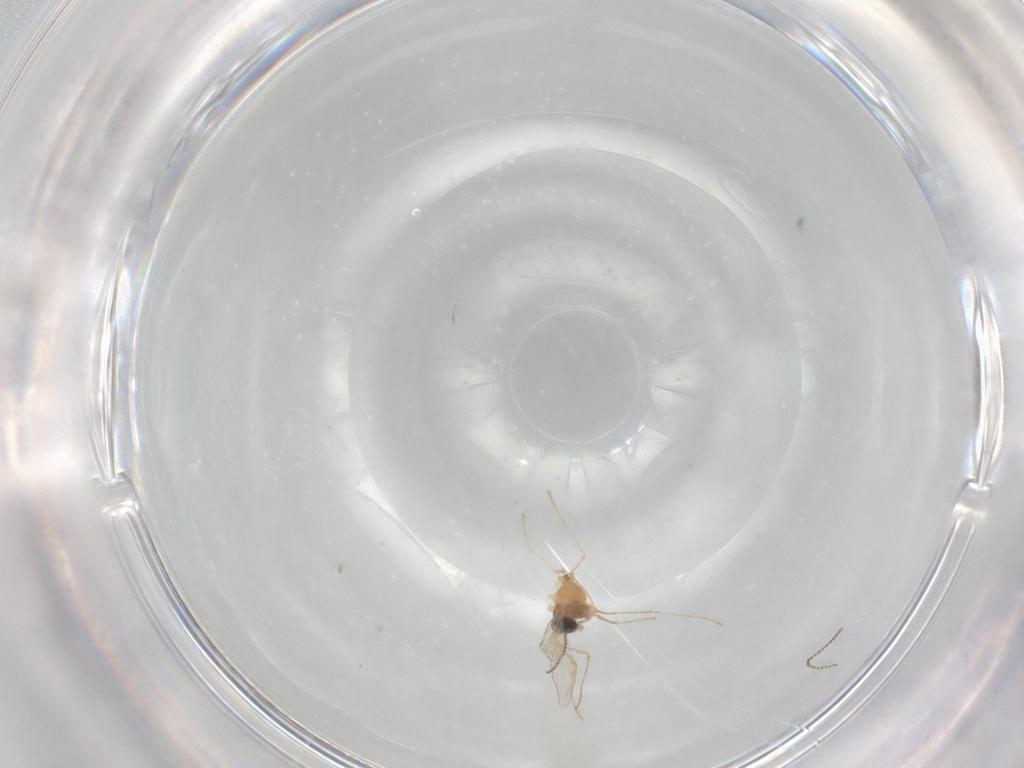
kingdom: Animalia
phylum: Arthropoda
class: Insecta
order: Diptera
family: Cecidomyiidae
